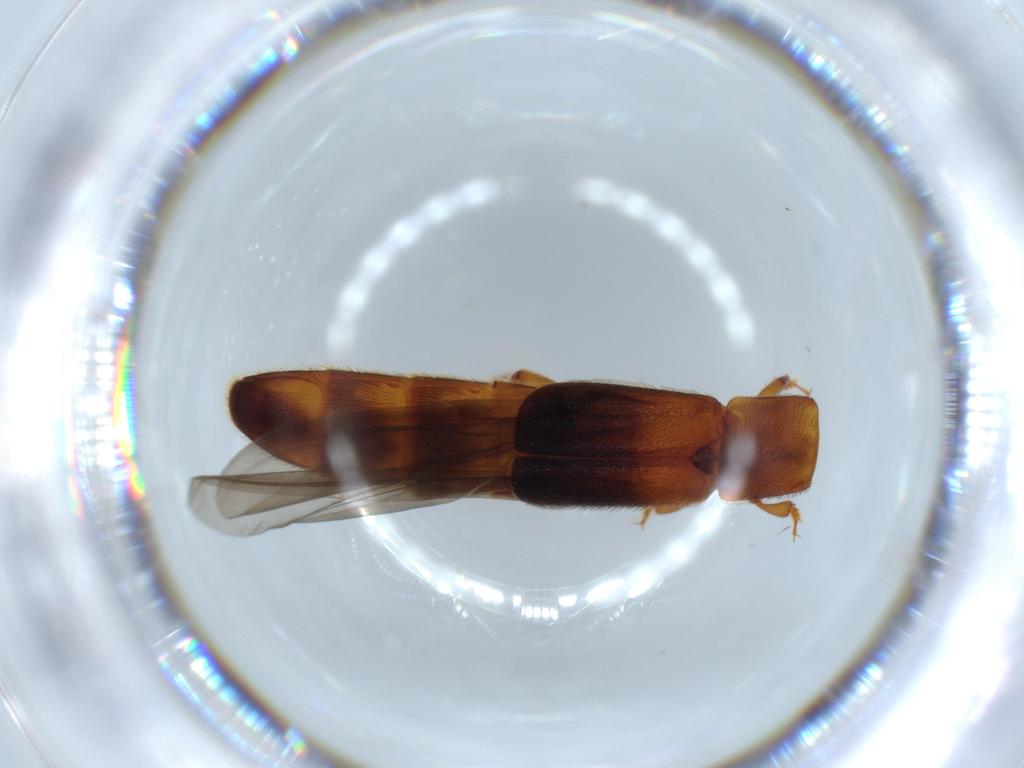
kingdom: Animalia
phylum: Arthropoda
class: Insecta
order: Coleoptera
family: Nitidulidae
